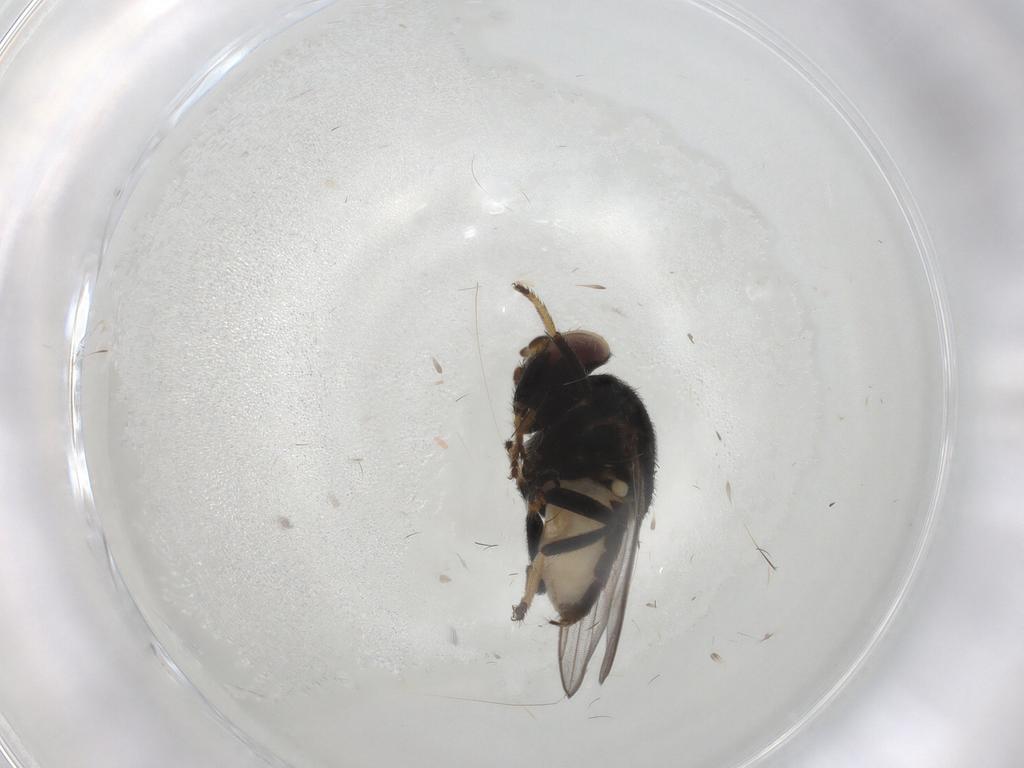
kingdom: Animalia
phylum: Arthropoda
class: Insecta
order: Diptera
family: Chloropidae
